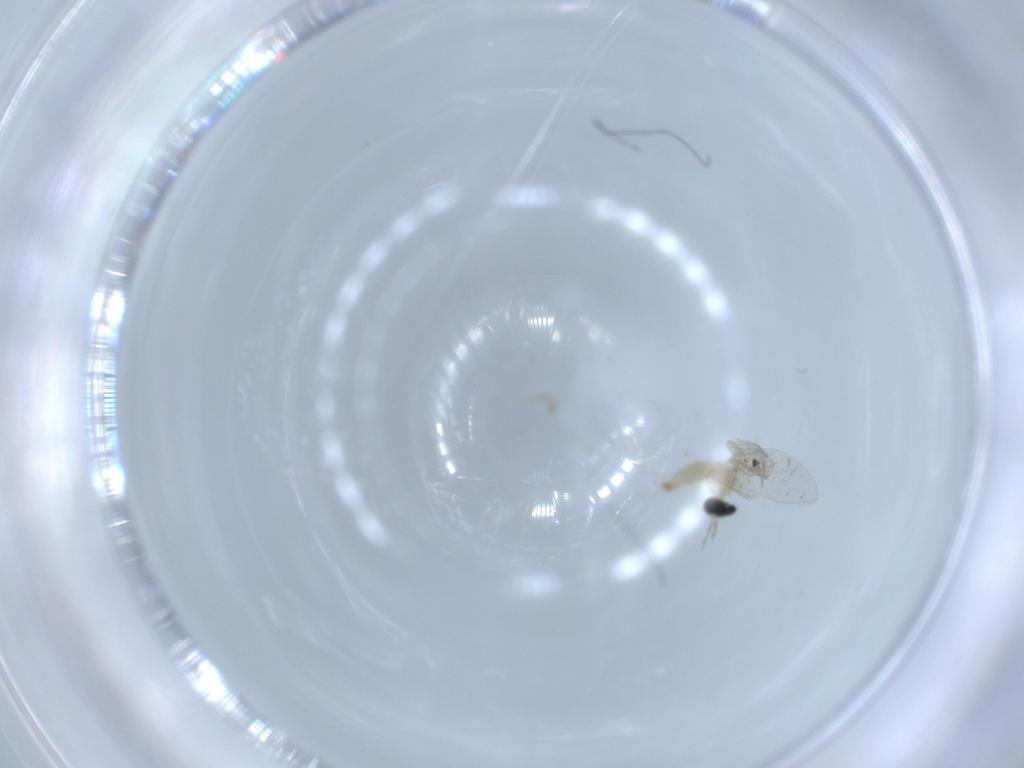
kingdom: Animalia
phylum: Arthropoda
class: Insecta
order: Diptera
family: Cecidomyiidae
